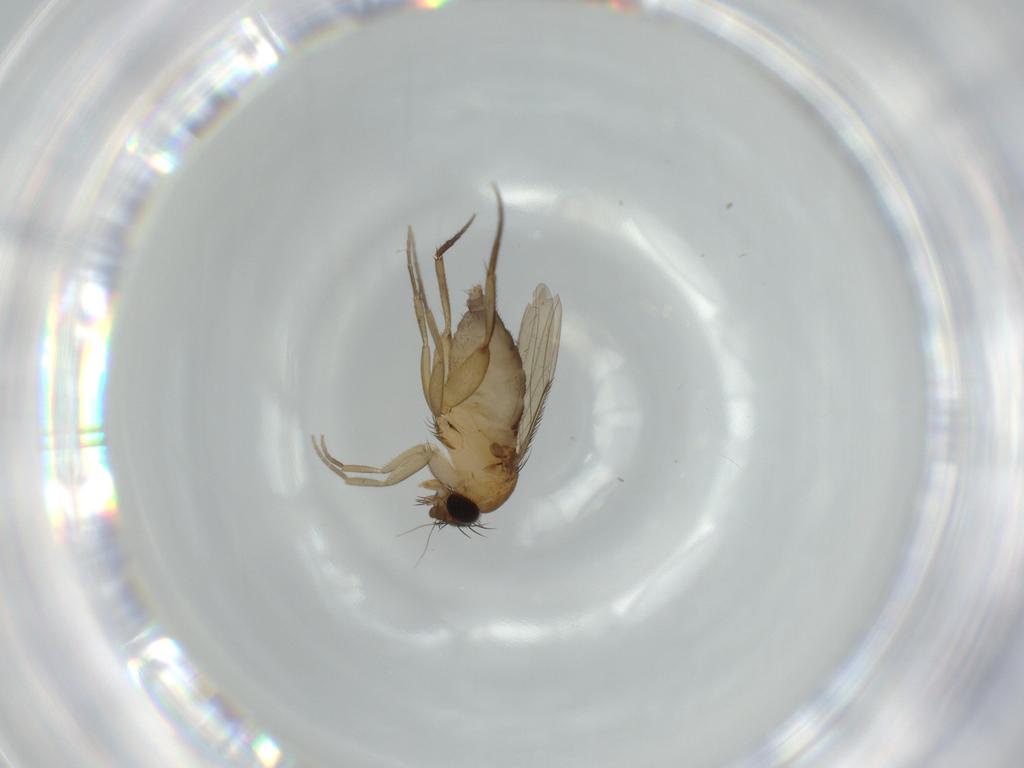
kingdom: Animalia
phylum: Arthropoda
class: Insecta
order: Diptera
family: Phoridae
